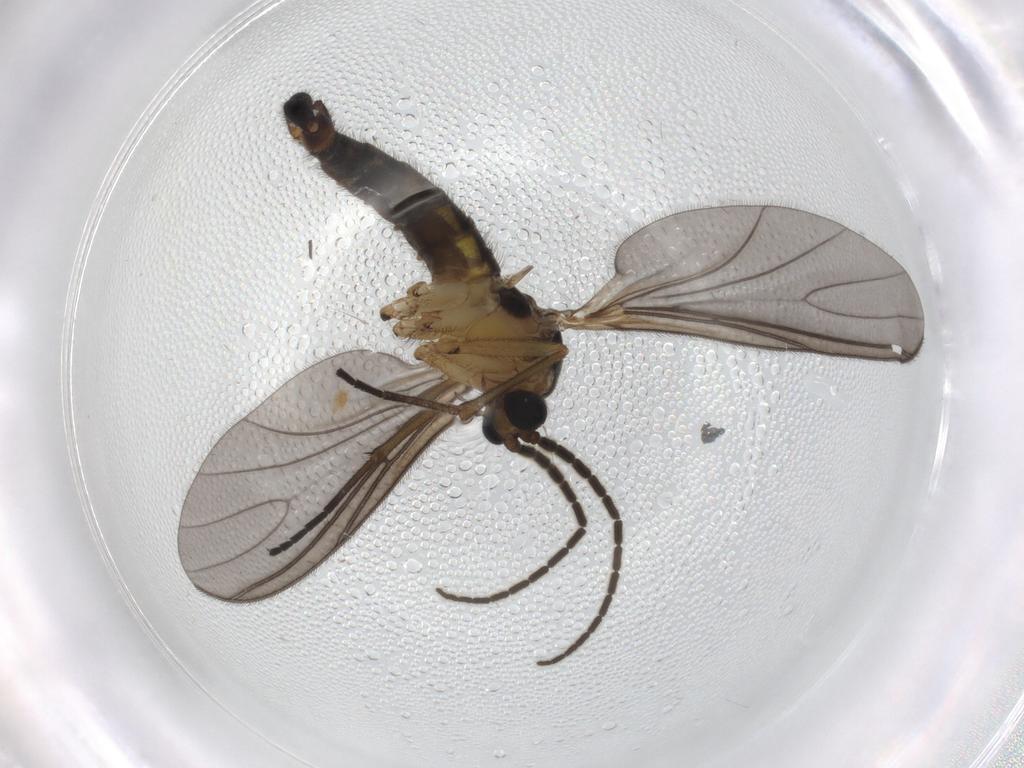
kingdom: Animalia
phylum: Arthropoda
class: Insecta
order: Diptera
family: Sciaridae
